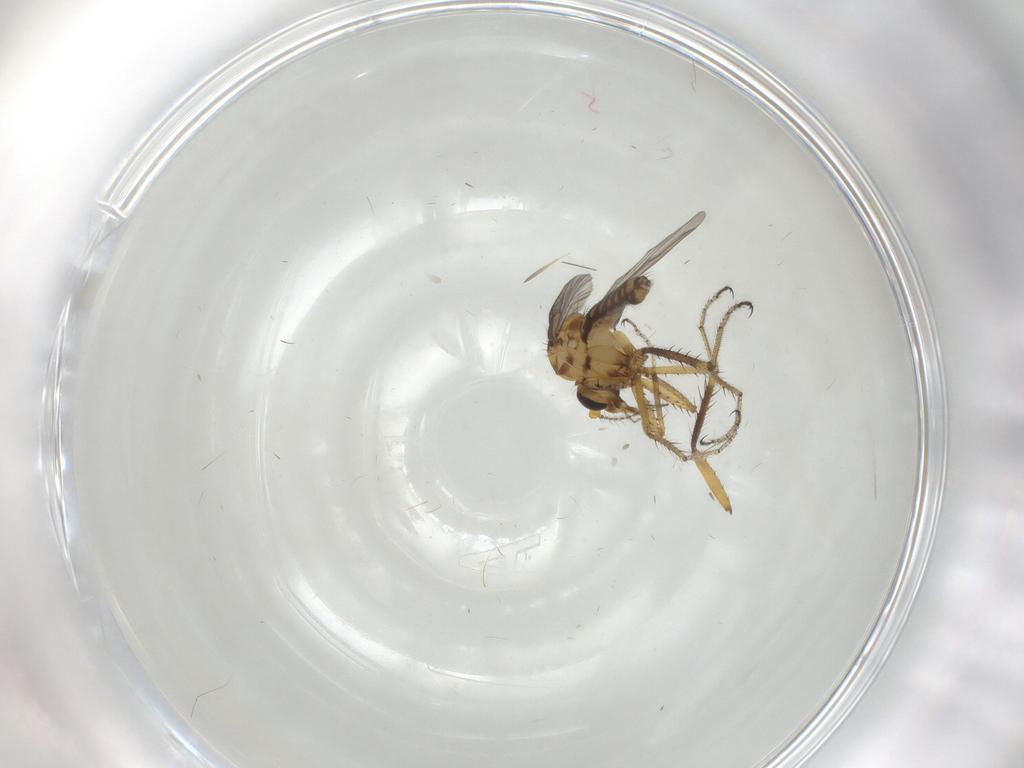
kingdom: Animalia
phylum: Arthropoda
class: Insecta
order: Diptera
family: Ceratopogonidae
